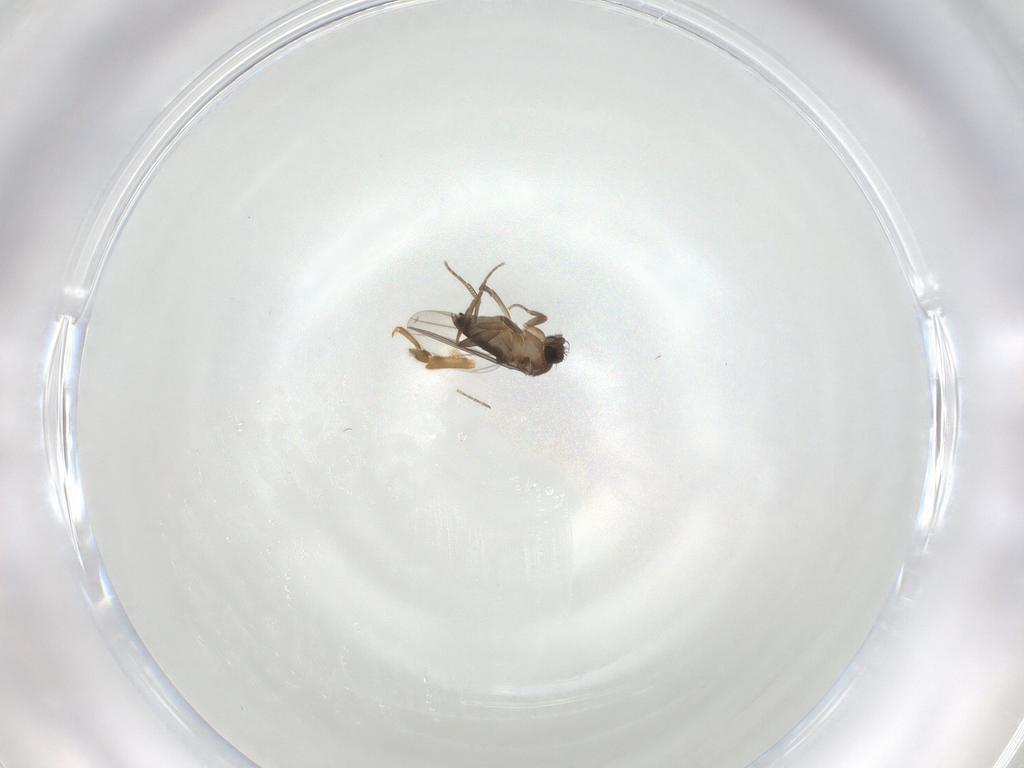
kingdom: Animalia
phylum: Arthropoda
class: Insecta
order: Diptera
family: Phoridae
